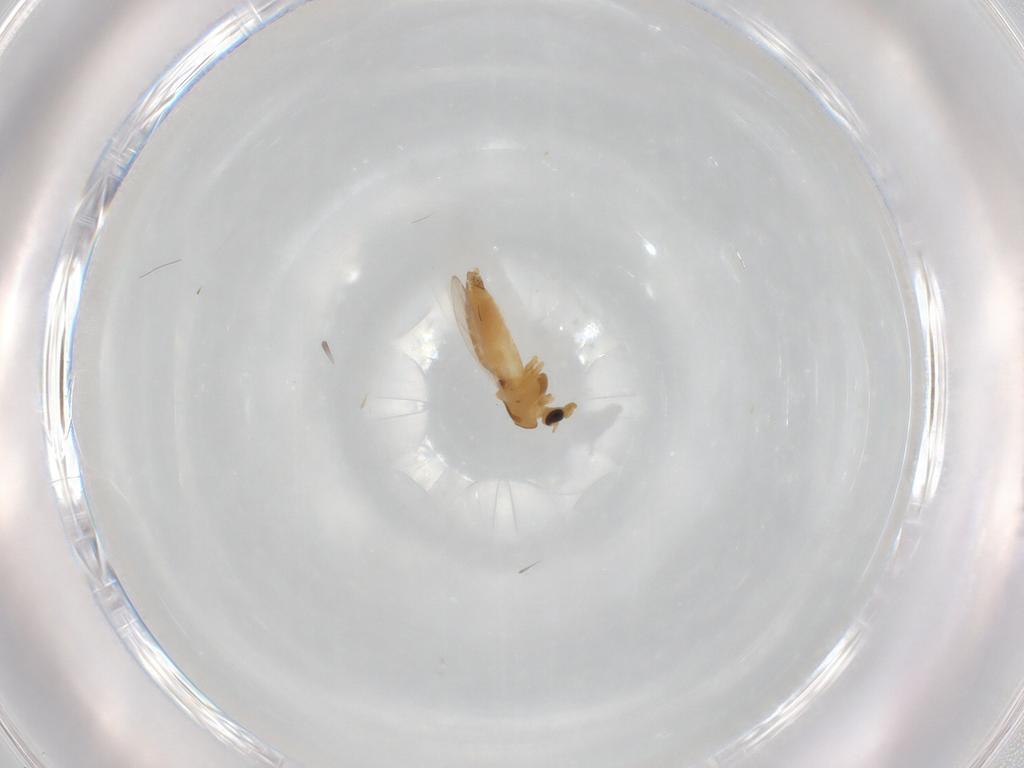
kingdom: Animalia
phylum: Arthropoda
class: Insecta
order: Diptera
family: Chironomidae
